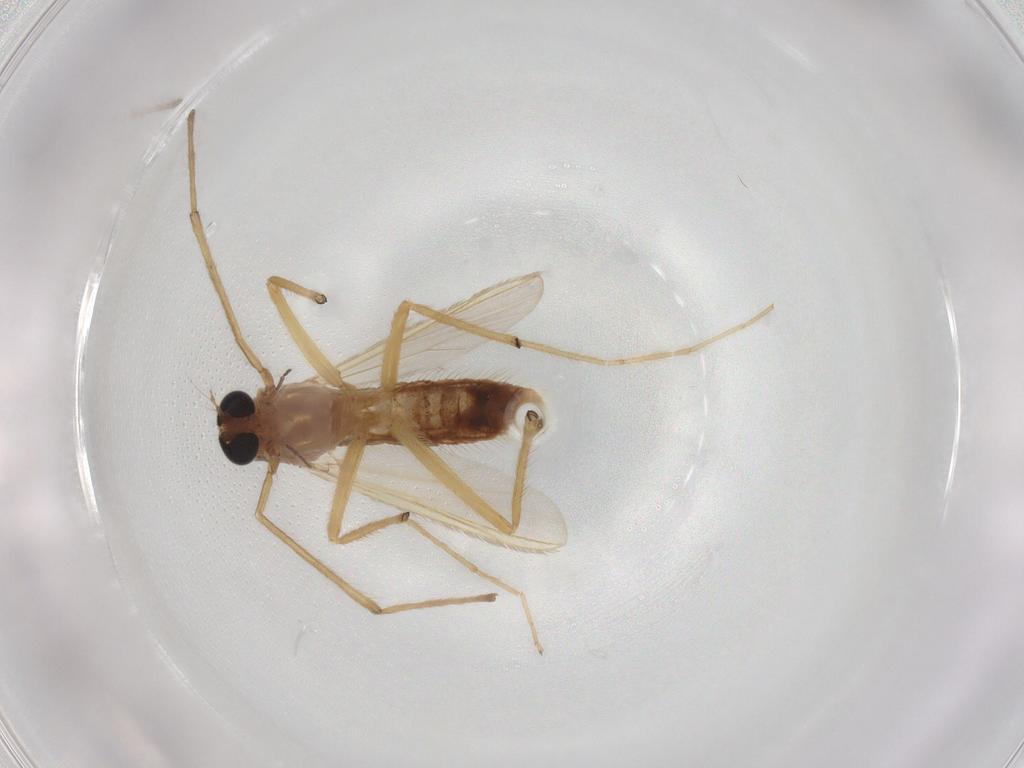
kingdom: Animalia
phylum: Arthropoda
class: Insecta
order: Diptera
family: Chironomidae
